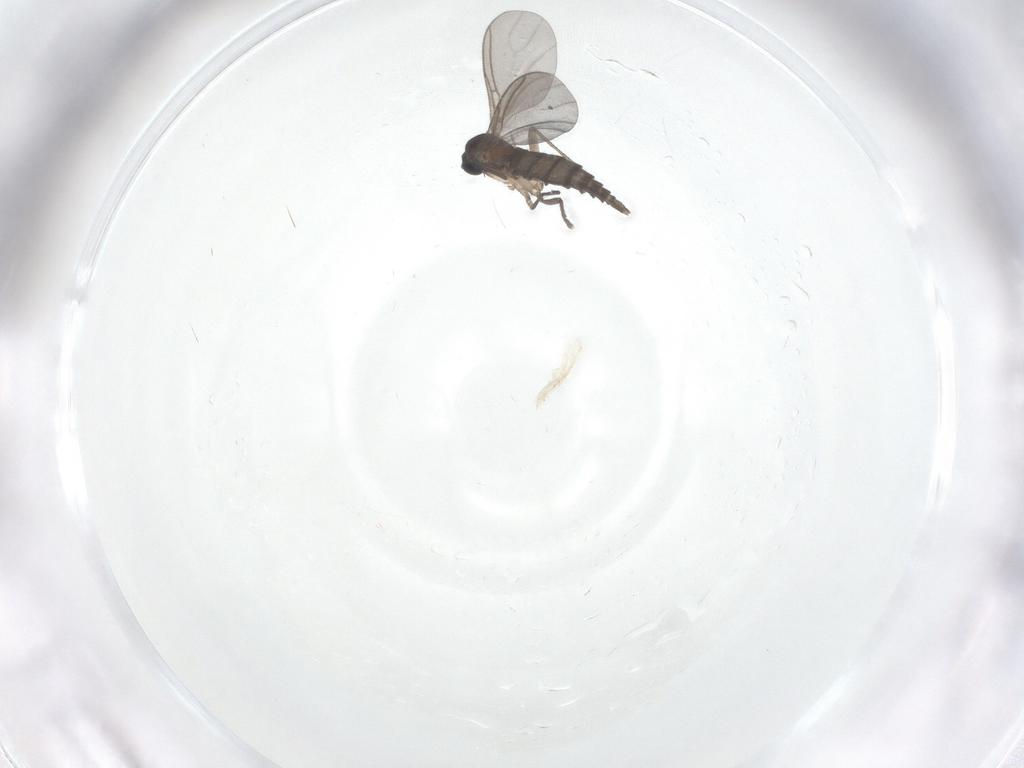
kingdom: Animalia
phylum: Arthropoda
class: Insecta
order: Diptera
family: Sciaridae
